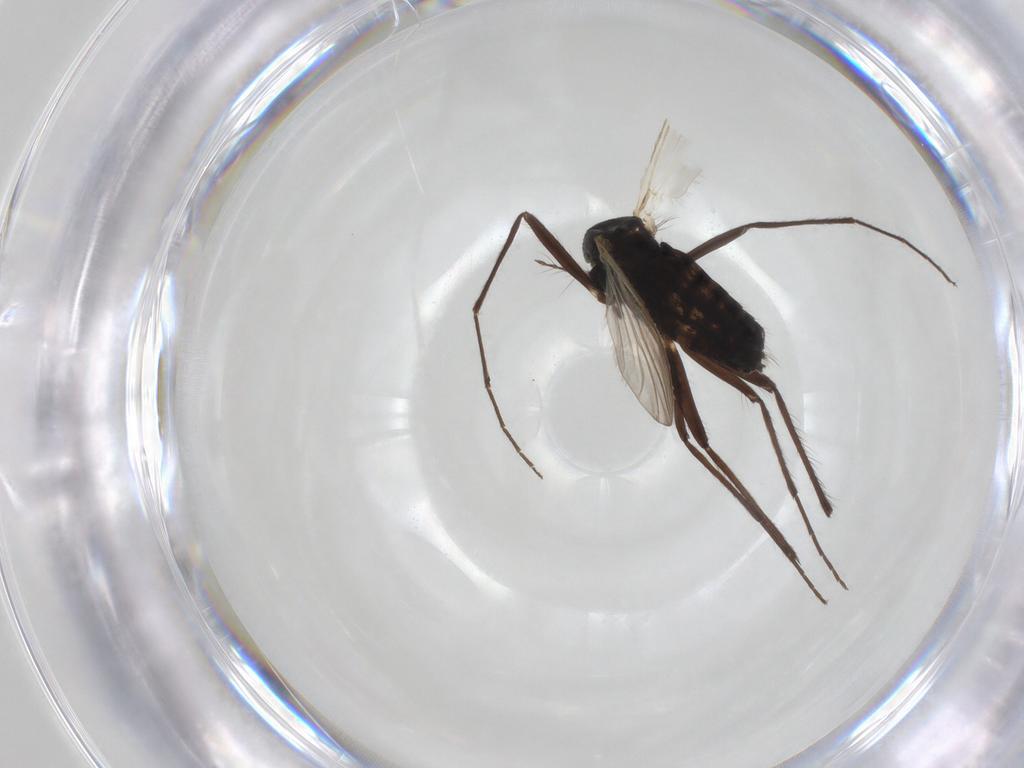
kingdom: Animalia
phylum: Arthropoda
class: Insecta
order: Diptera
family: Chironomidae
